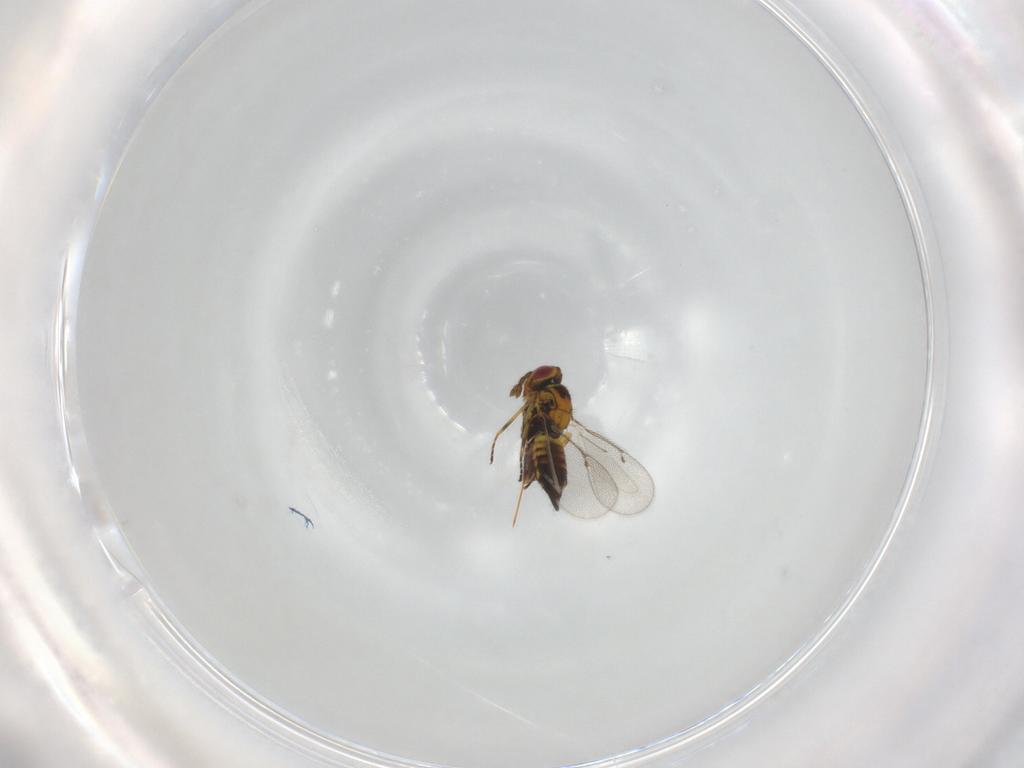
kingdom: Animalia
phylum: Arthropoda
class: Insecta
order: Hymenoptera
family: Eulophidae
